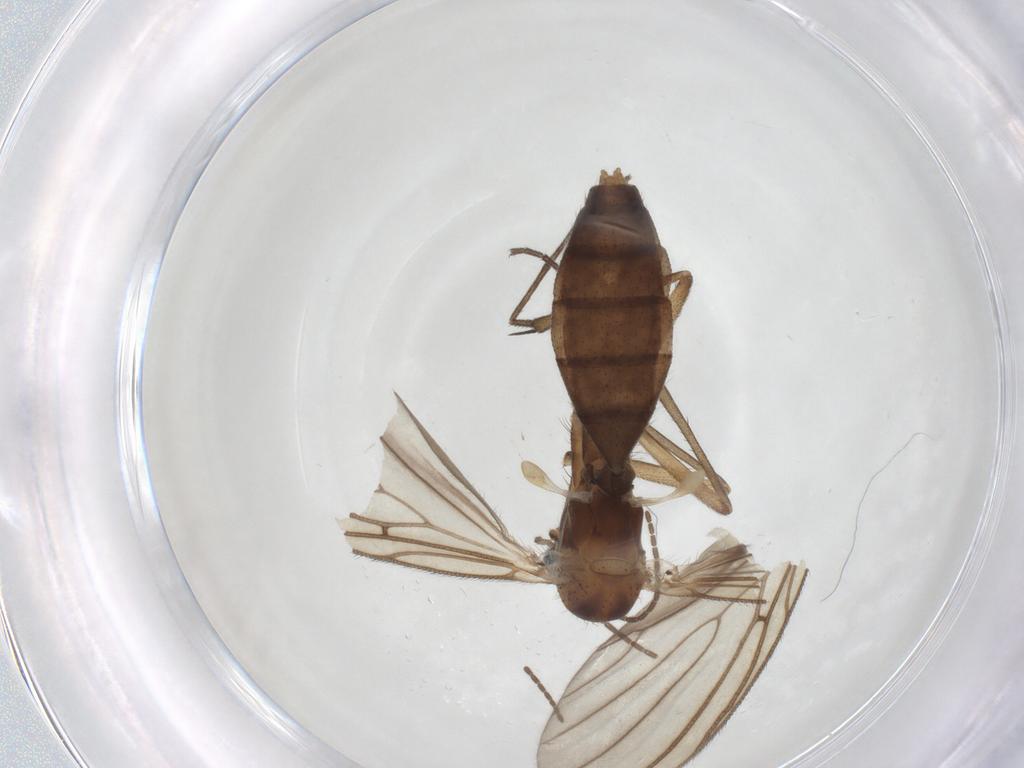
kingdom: Animalia
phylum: Arthropoda
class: Insecta
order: Diptera
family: Mycetophilidae
